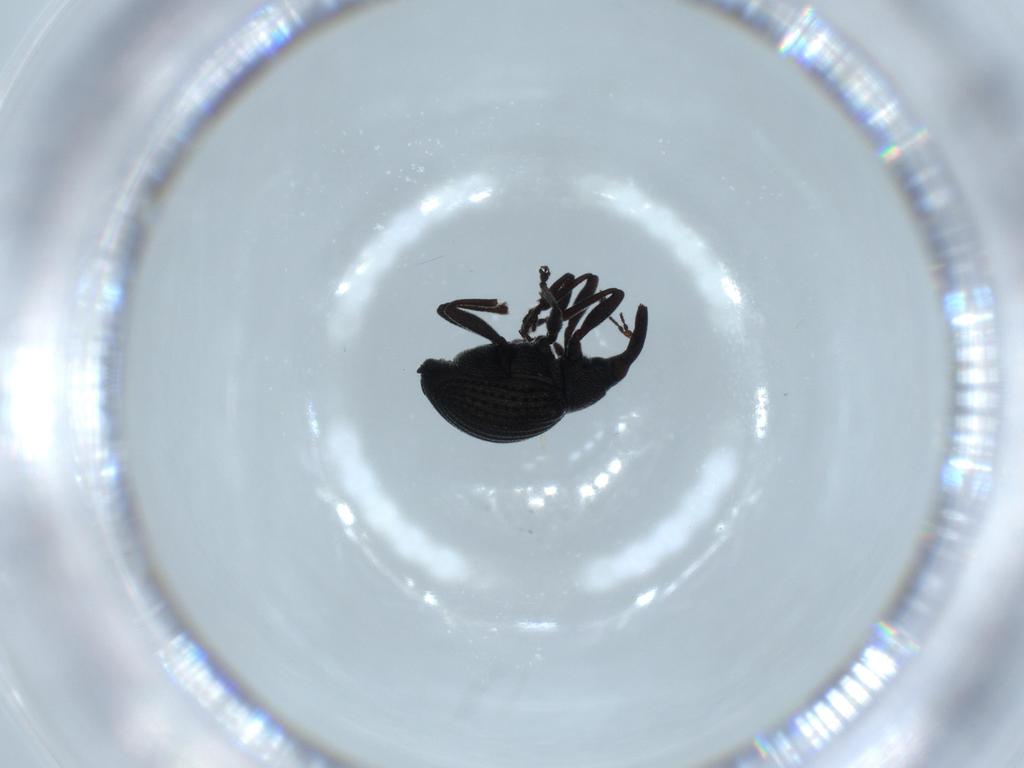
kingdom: Animalia
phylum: Arthropoda
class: Insecta
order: Coleoptera
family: Brentidae
